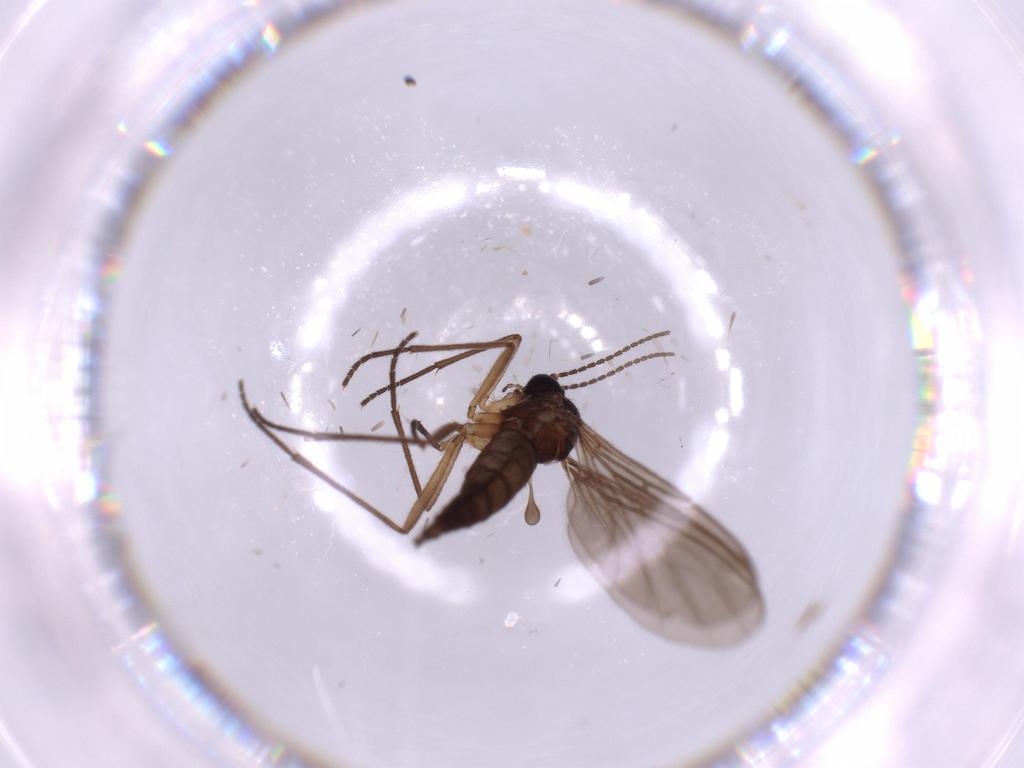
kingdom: Animalia
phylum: Arthropoda
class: Insecta
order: Diptera
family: Sciaridae
